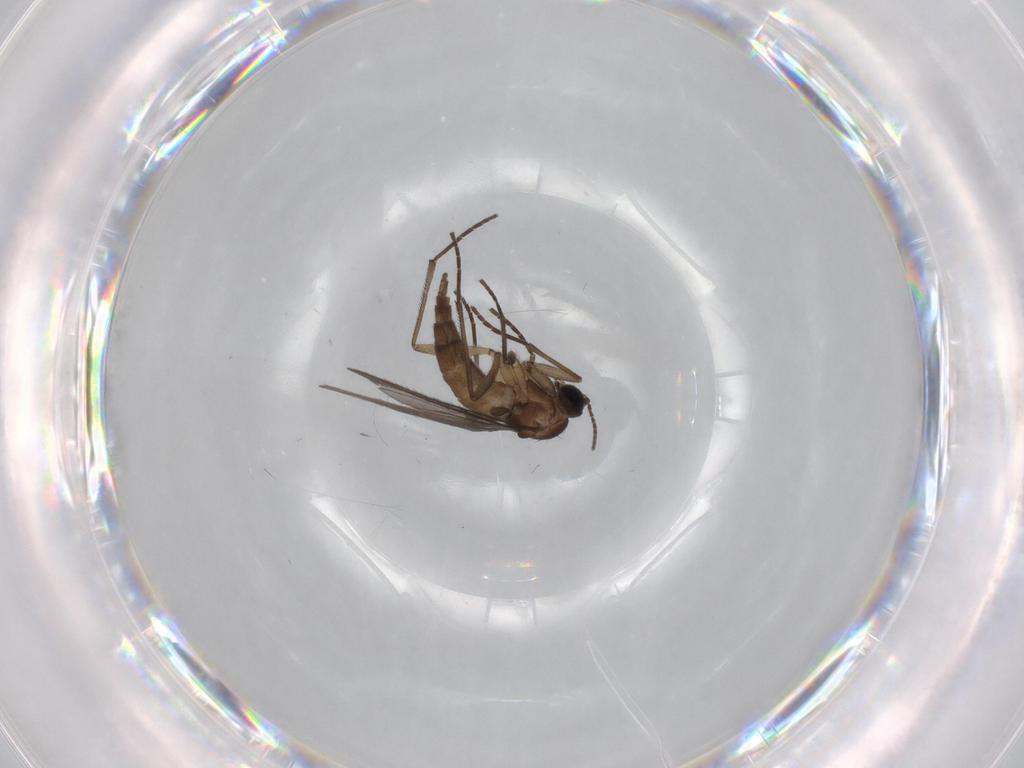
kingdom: Animalia
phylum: Arthropoda
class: Insecta
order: Diptera
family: Sciaridae
